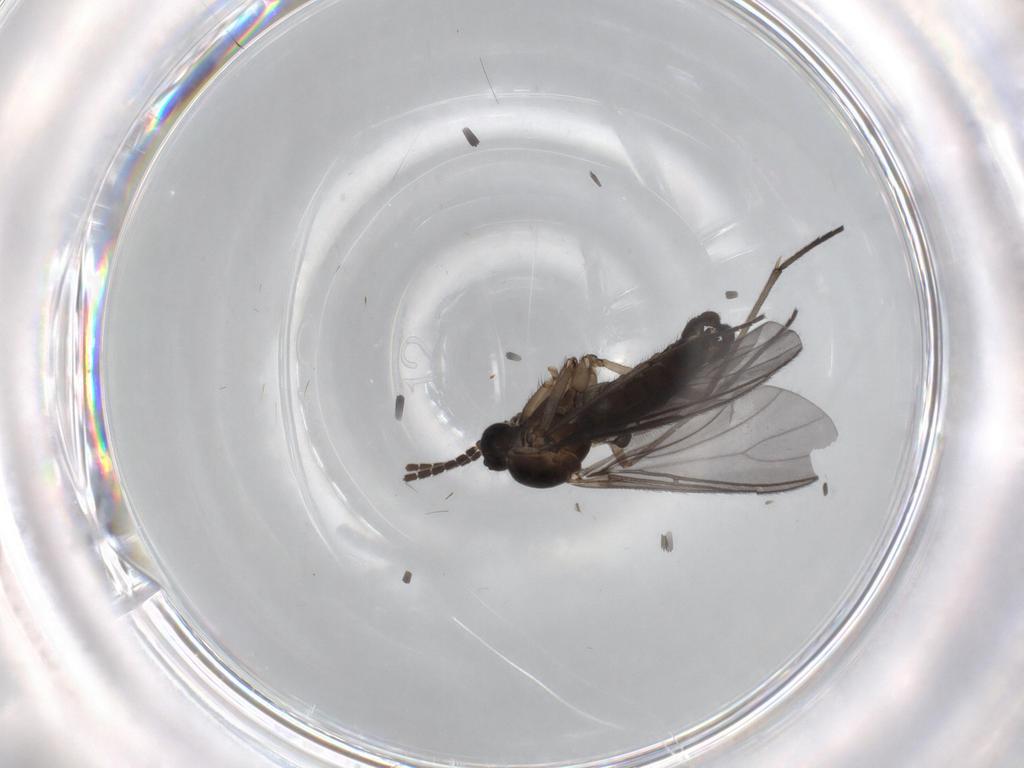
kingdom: Animalia
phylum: Arthropoda
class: Insecta
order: Diptera
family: Sciaridae
